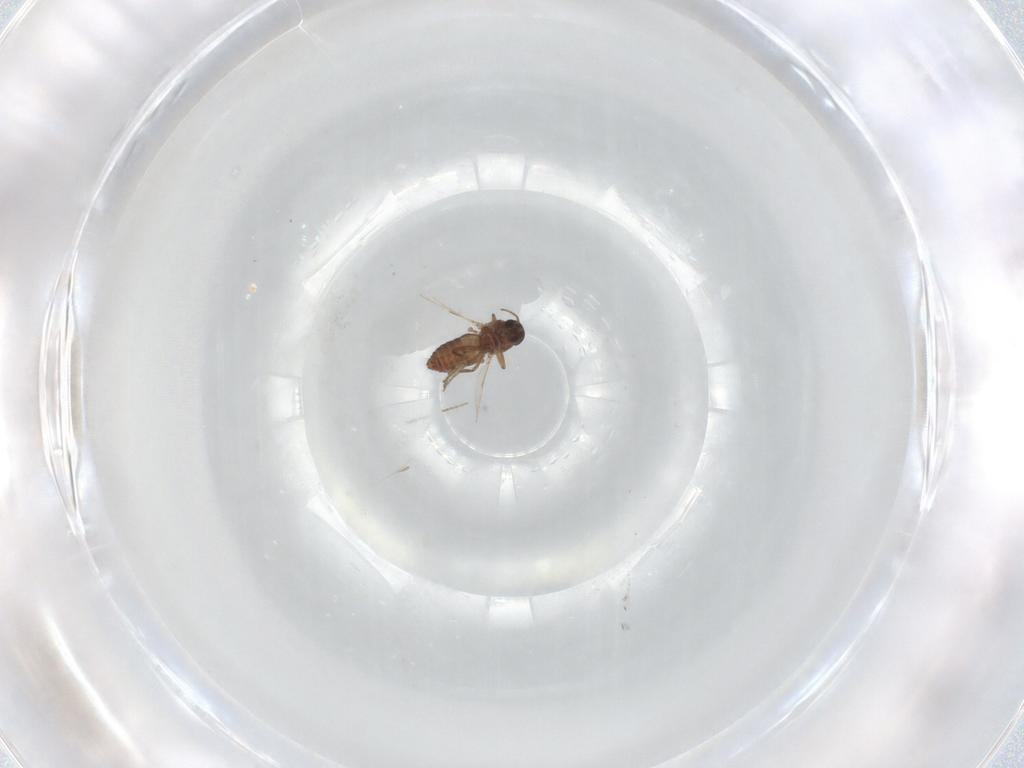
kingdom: Animalia
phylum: Arthropoda
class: Insecta
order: Diptera
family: Ceratopogonidae
